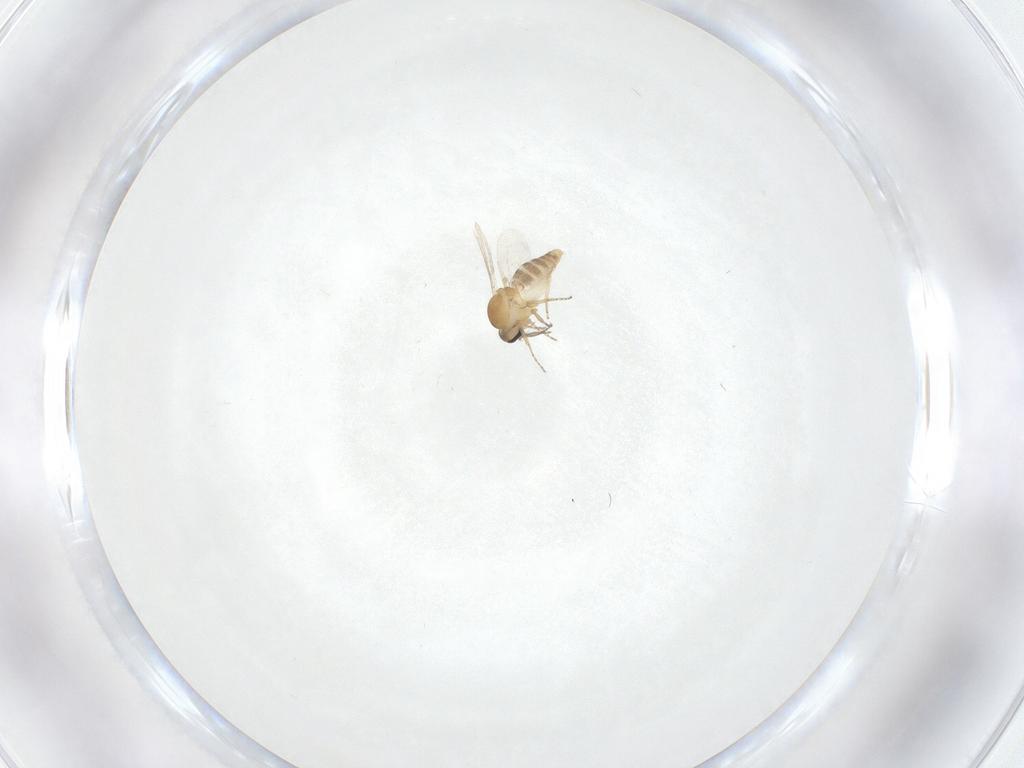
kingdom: Animalia
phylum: Arthropoda
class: Insecta
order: Diptera
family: Ceratopogonidae
